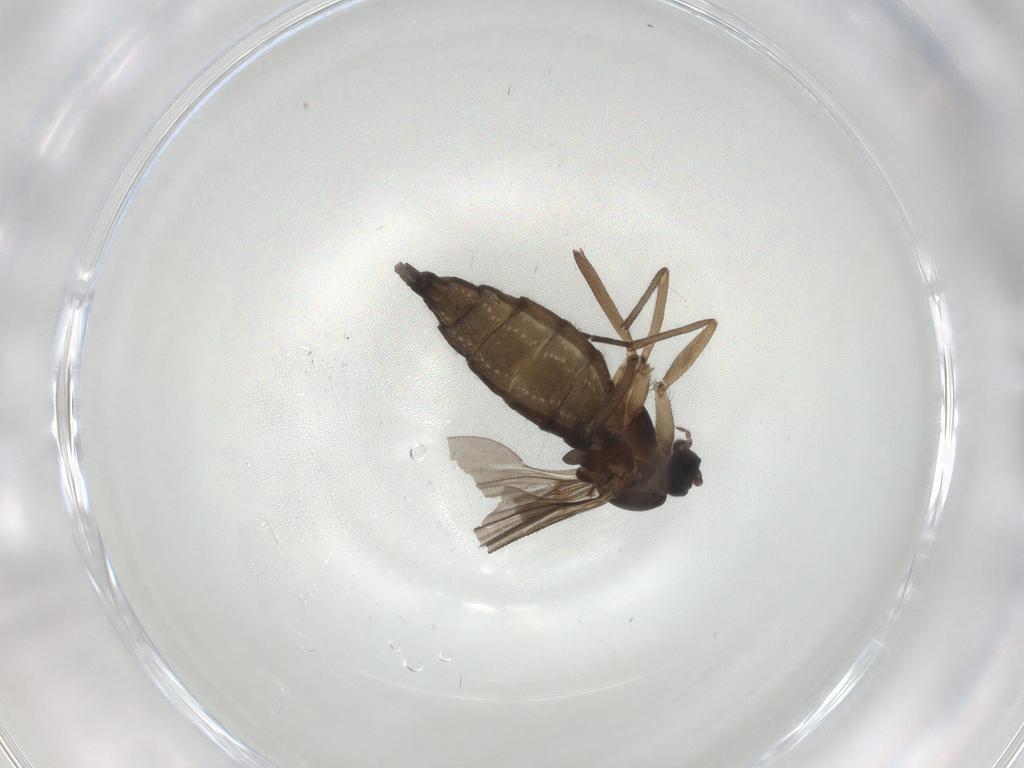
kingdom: Animalia
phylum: Arthropoda
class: Insecta
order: Diptera
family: Sciaridae
